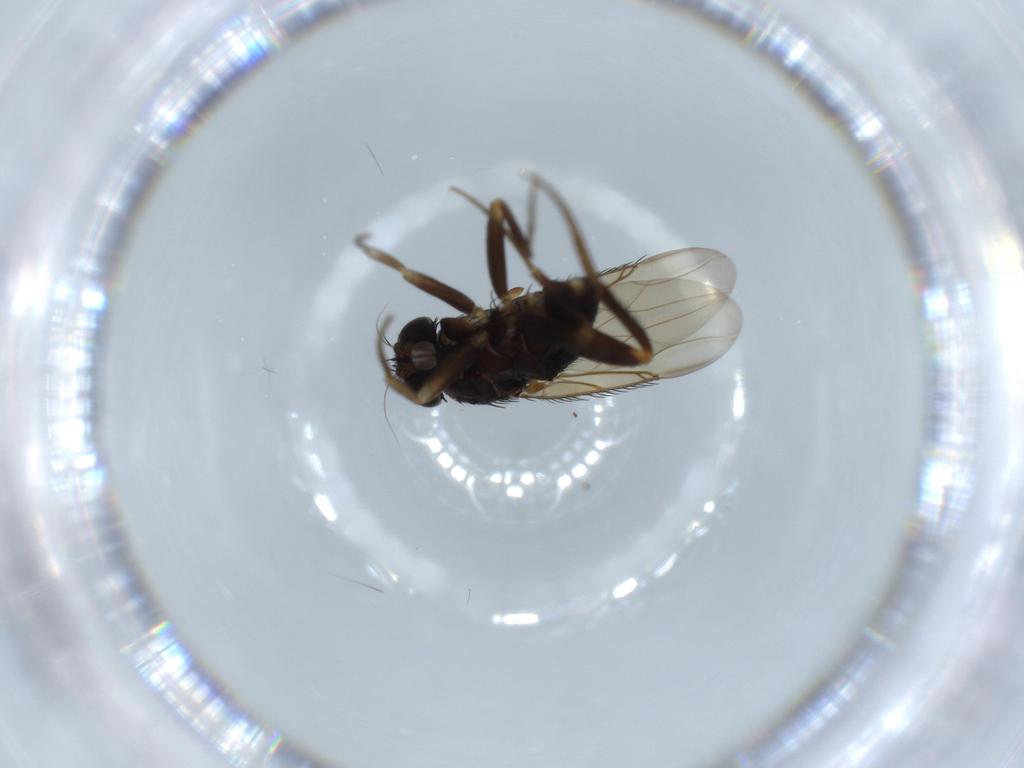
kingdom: Animalia
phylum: Arthropoda
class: Insecta
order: Diptera
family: Phoridae
